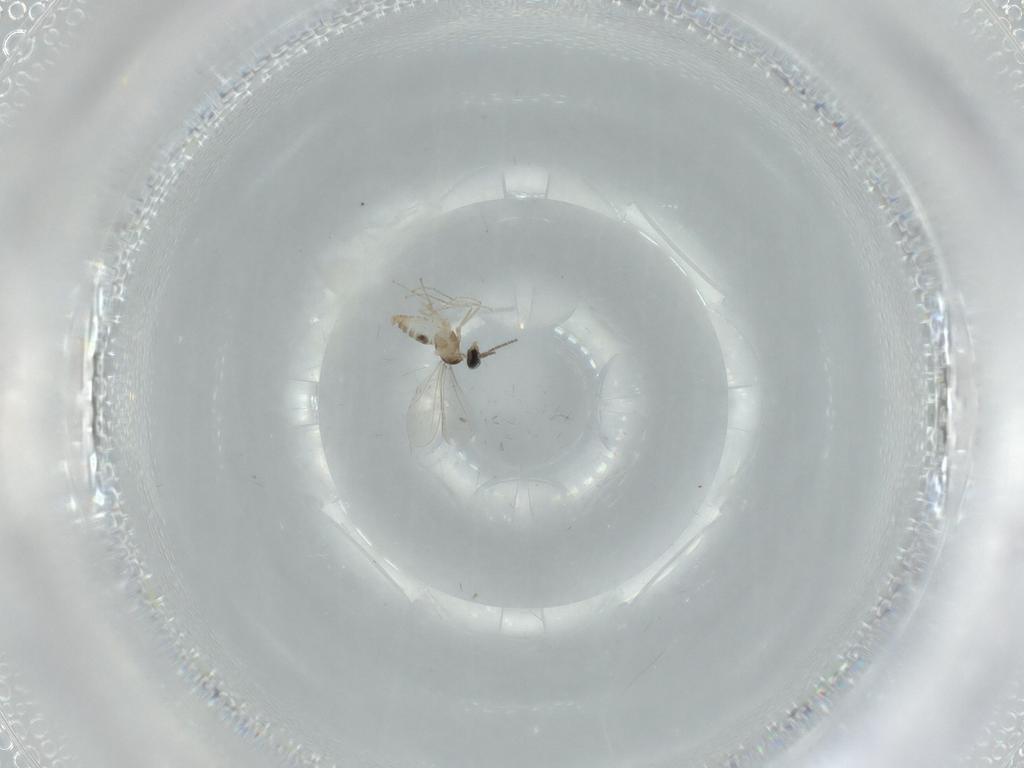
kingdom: Animalia
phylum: Arthropoda
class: Insecta
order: Diptera
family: Cecidomyiidae
